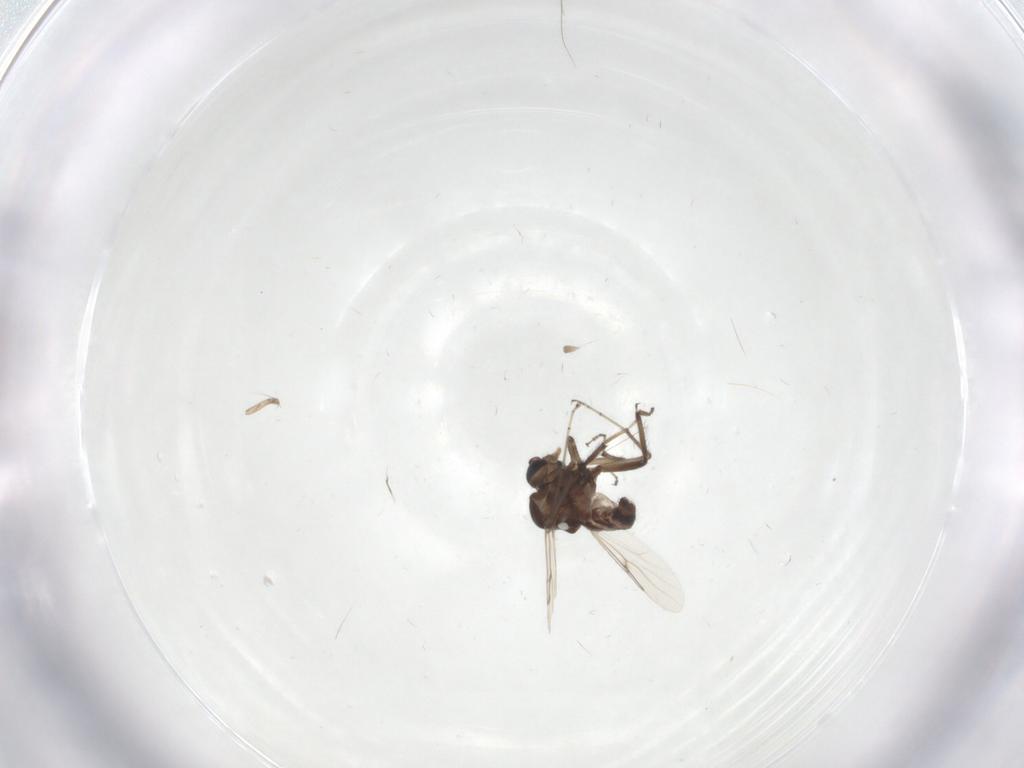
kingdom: Animalia
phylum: Arthropoda
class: Insecta
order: Diptera
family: Ceratopogonidae
